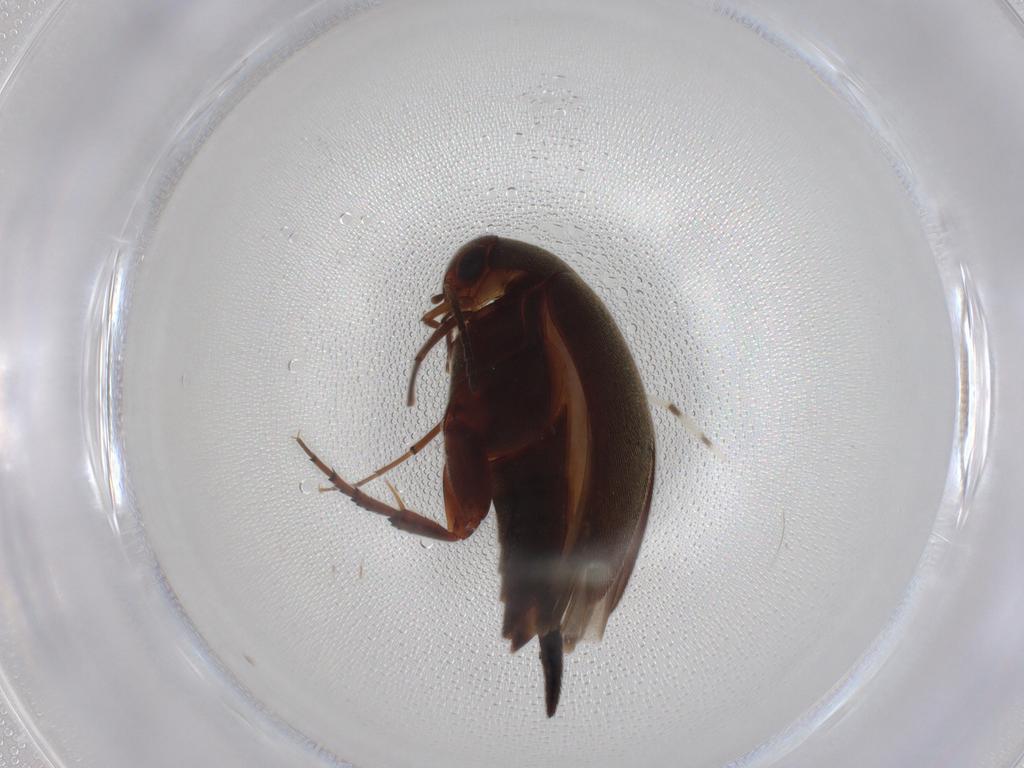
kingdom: Animalia
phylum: Arthropoda
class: Insecta
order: Coleoptera
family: Mordellidae
